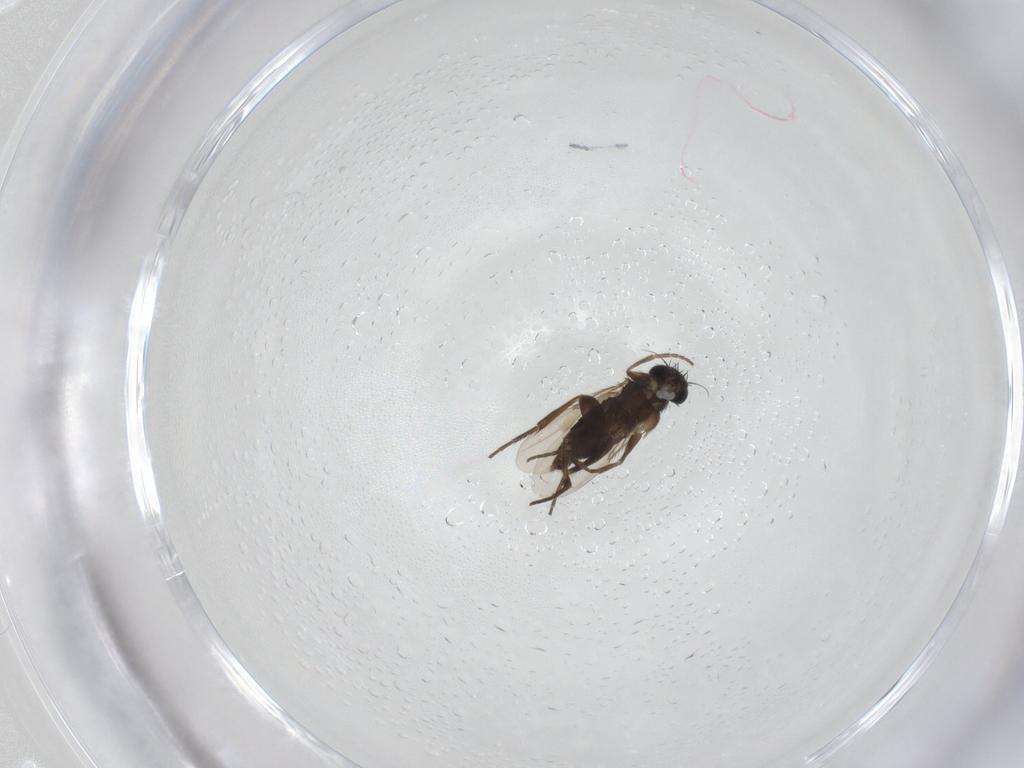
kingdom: Animalia
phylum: Arthropoda
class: Insecta
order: Diptera
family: Phoridae
